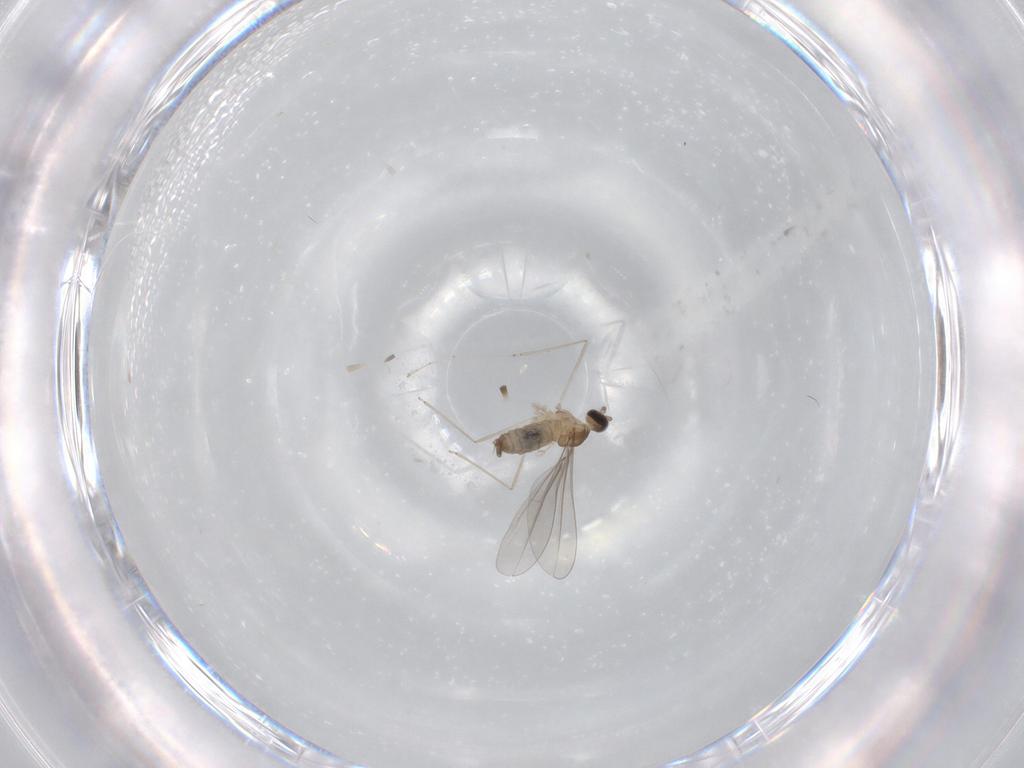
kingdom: Animalia
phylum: Arthropoda
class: Insecta
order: Diptera
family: Cecidomyiidae
